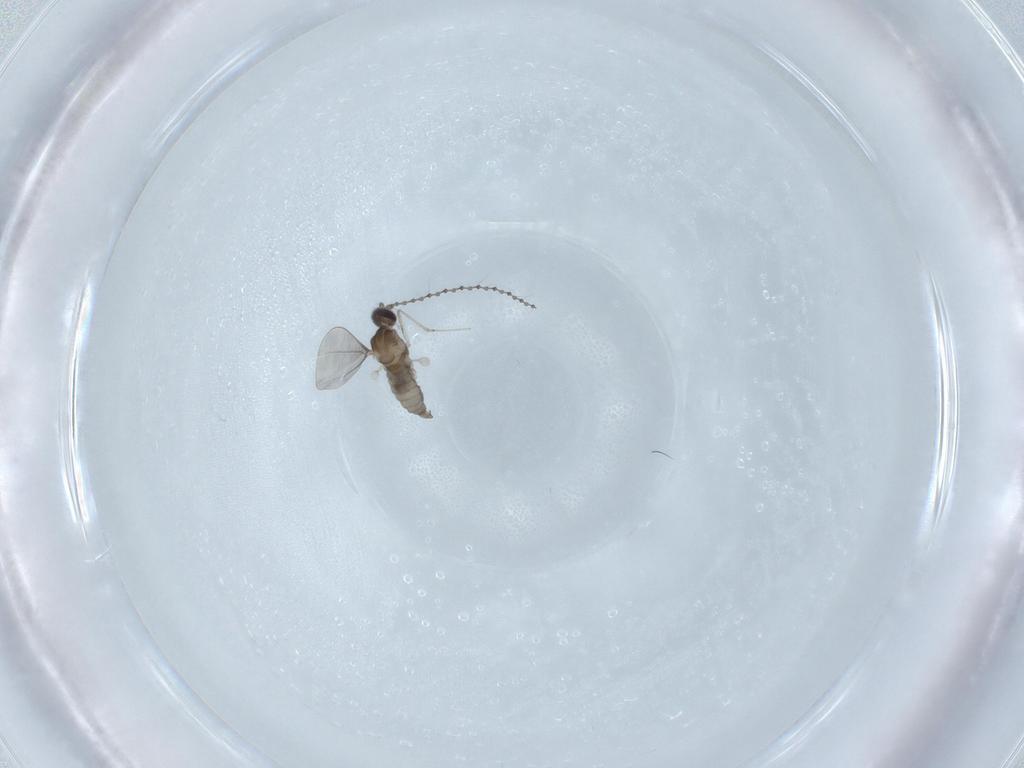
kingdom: Animalia
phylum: Arthropoda
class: Insecta
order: Diptera
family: Cecidomyiidae
